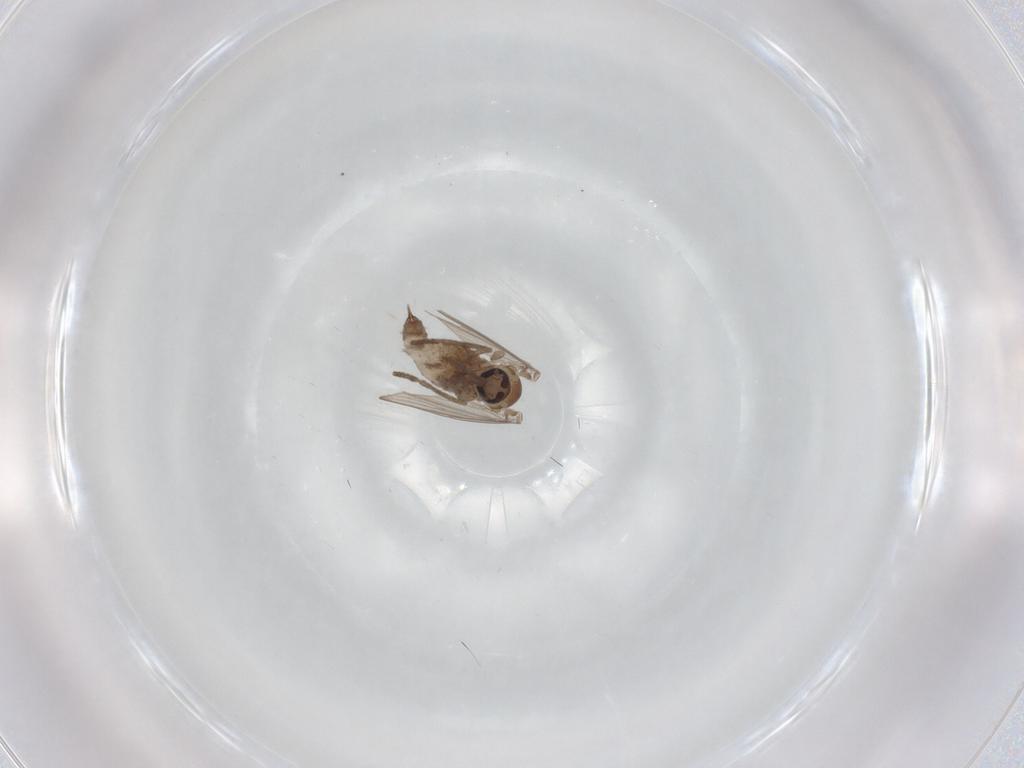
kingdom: Animalia
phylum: Arthropoda
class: Insecta
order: Diptera
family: Psychodidae
